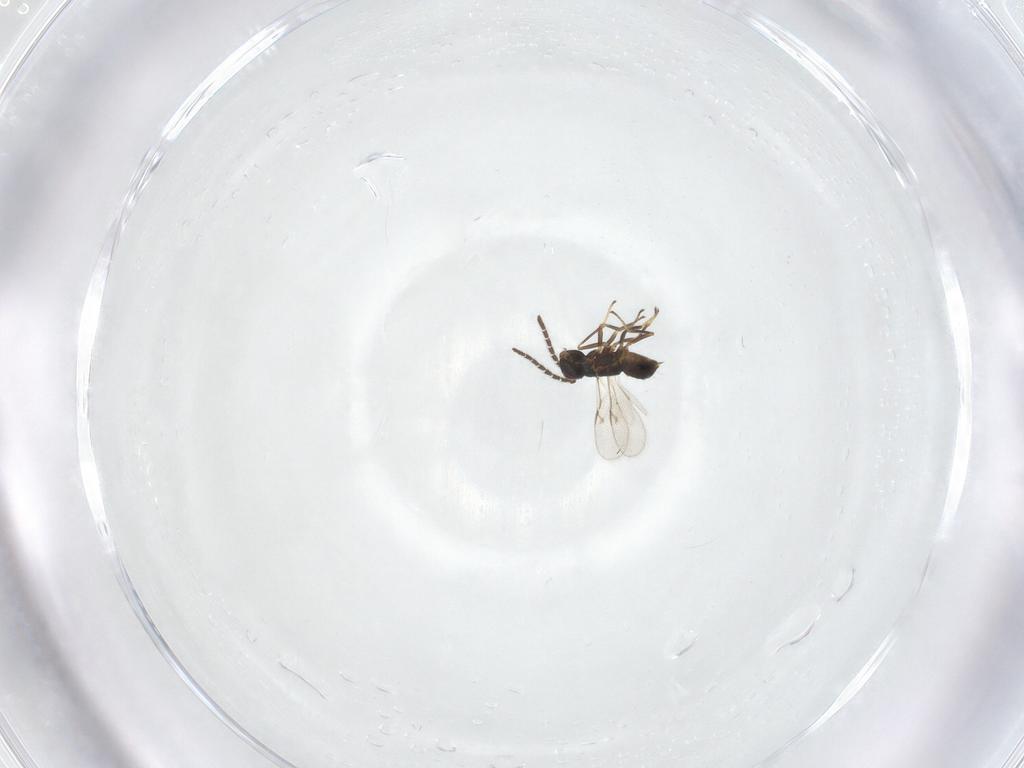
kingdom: Animalia
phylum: Arthropoda
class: Insecta
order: Hymenoptera
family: Encyrtidae
